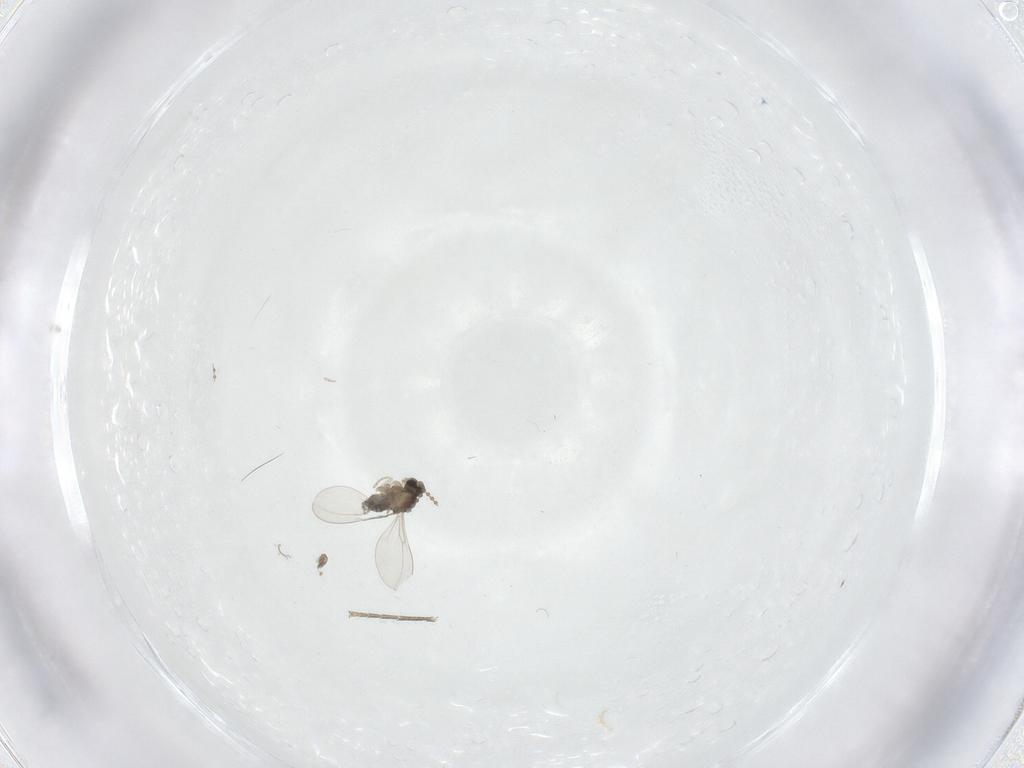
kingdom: Animalia
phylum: Arthropoda
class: Insecta
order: Diptera
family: Cecidomyiidae
